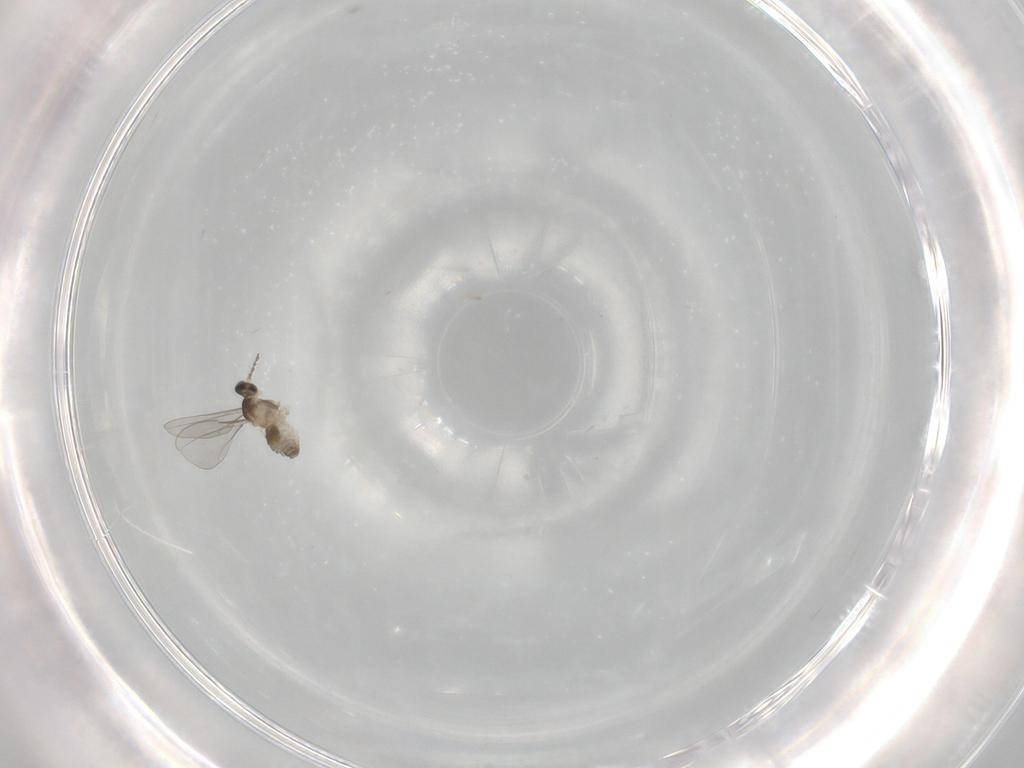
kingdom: Animalia
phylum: Arthropoda
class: Insecta
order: Diptera
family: Cecidomyiidae
